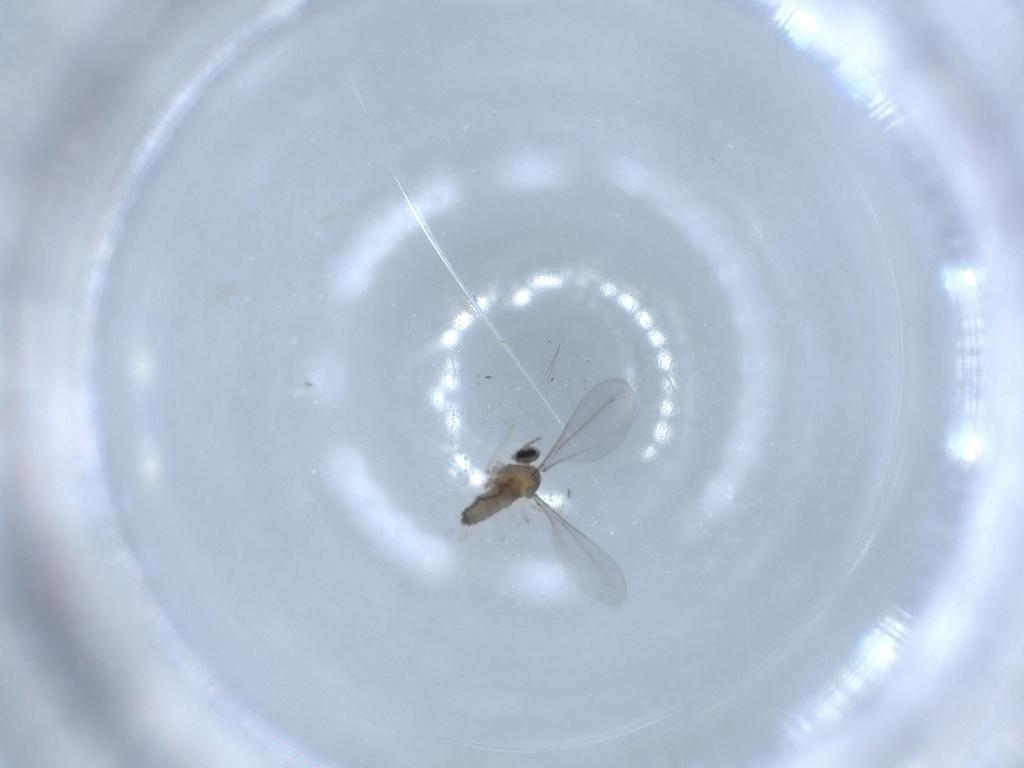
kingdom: Animalia
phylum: Arthropoda
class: Insecta
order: Diptera
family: Cecidomyiidae
